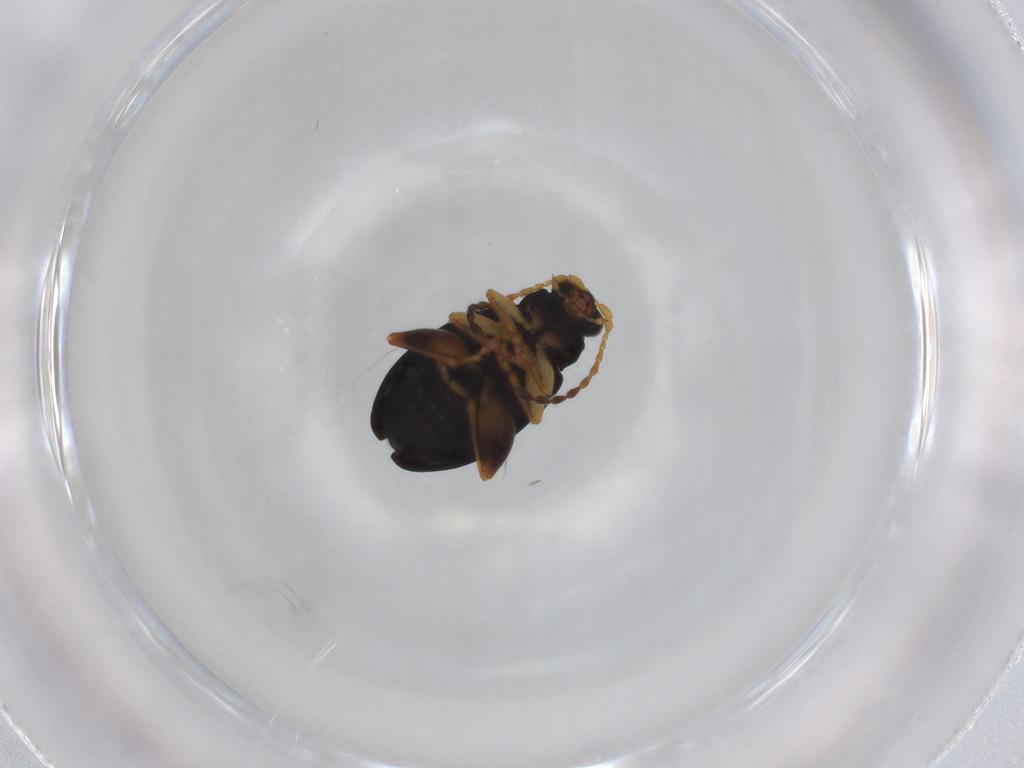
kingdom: Animalia
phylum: Arthropoda
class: Insecta
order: Coleoptera
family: Chrysomelidae
